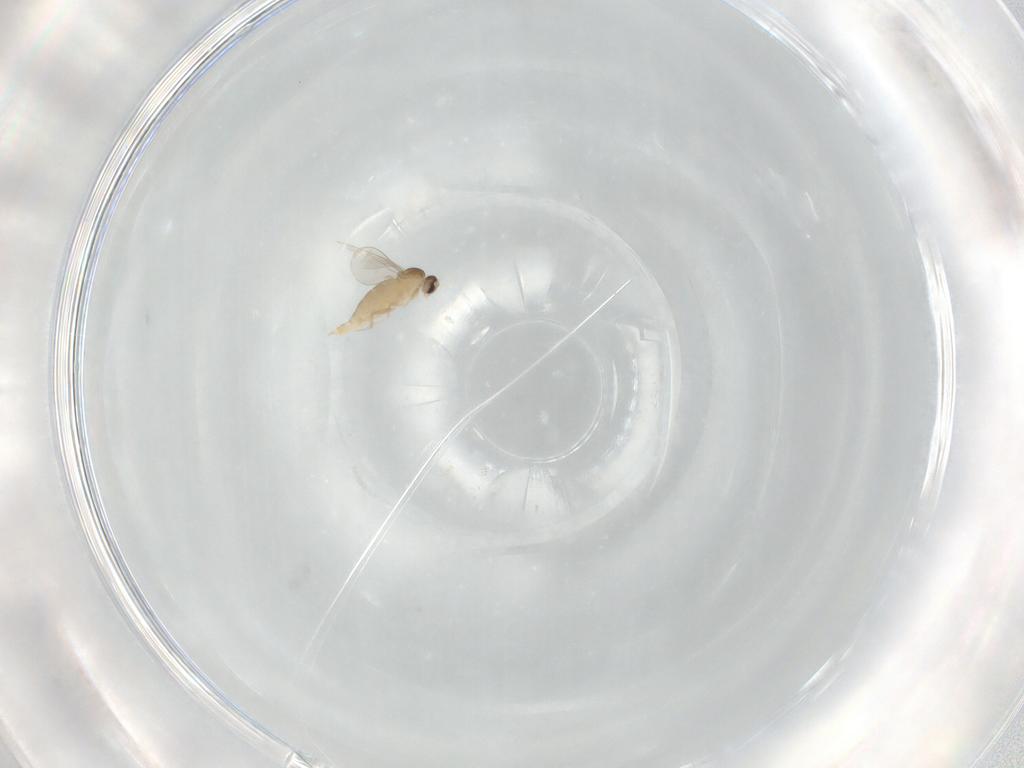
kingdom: Animalia
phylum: Arthropoda
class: Insecta
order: Diptera
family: Cecidomyiidae
